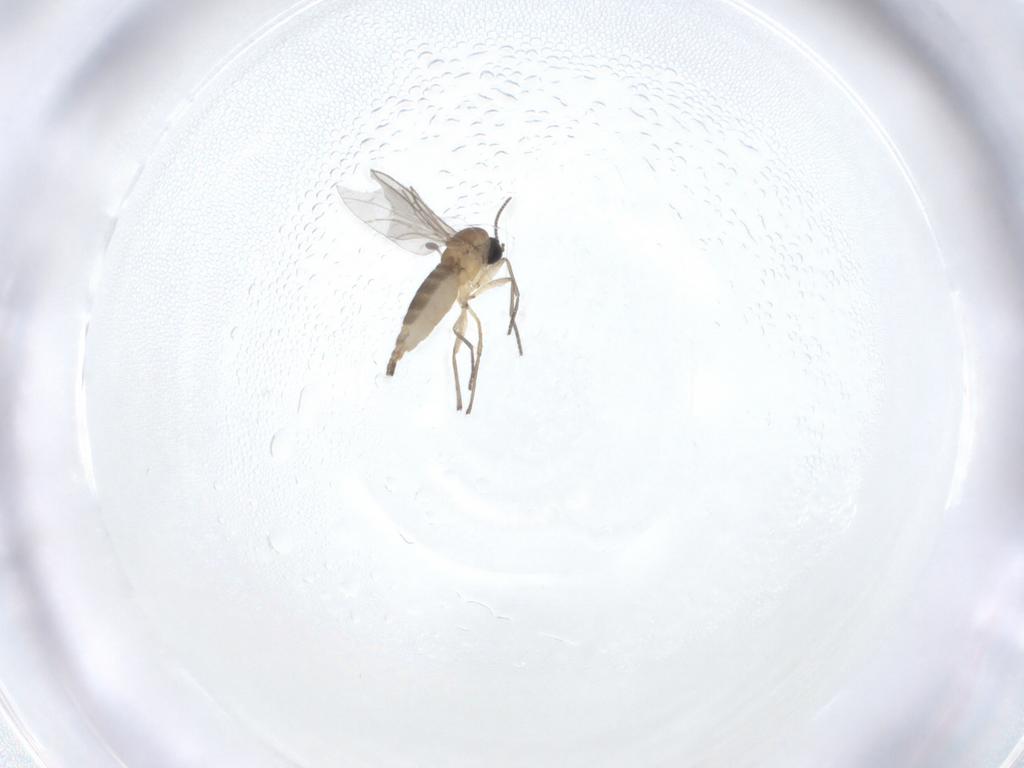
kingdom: Animalia
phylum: Arthropoda
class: Insecta
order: Diptera
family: Sciaridae
